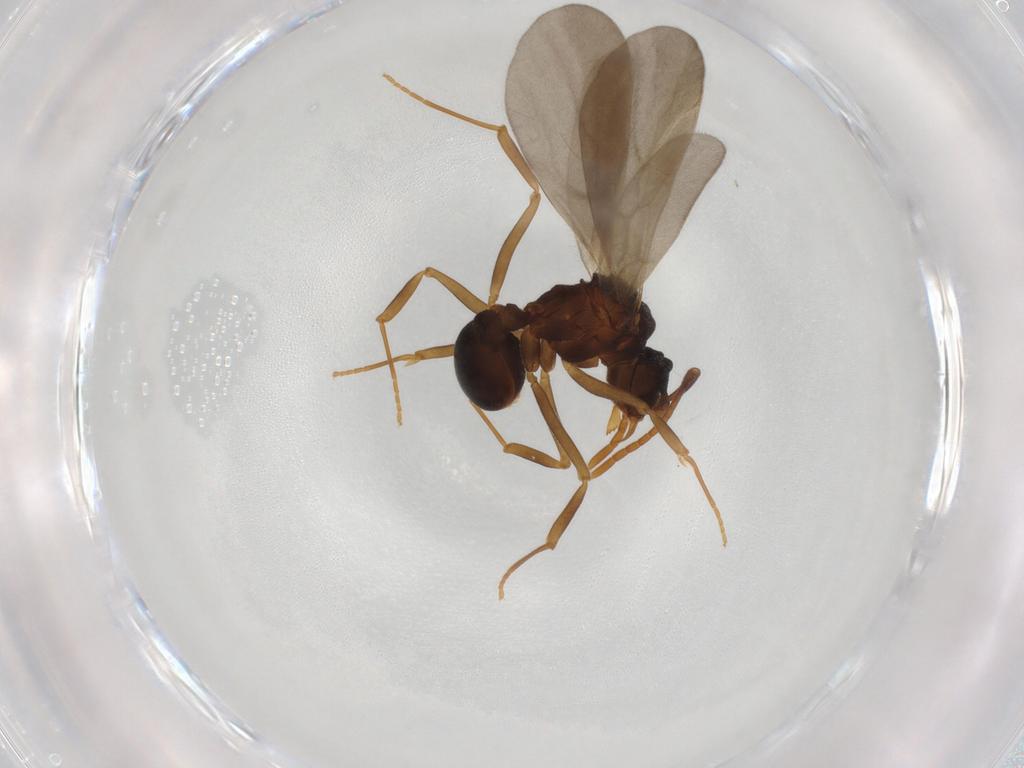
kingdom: Animalia
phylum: Arthropoda
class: Insecta
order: Hymenoptera
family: Formicidae
